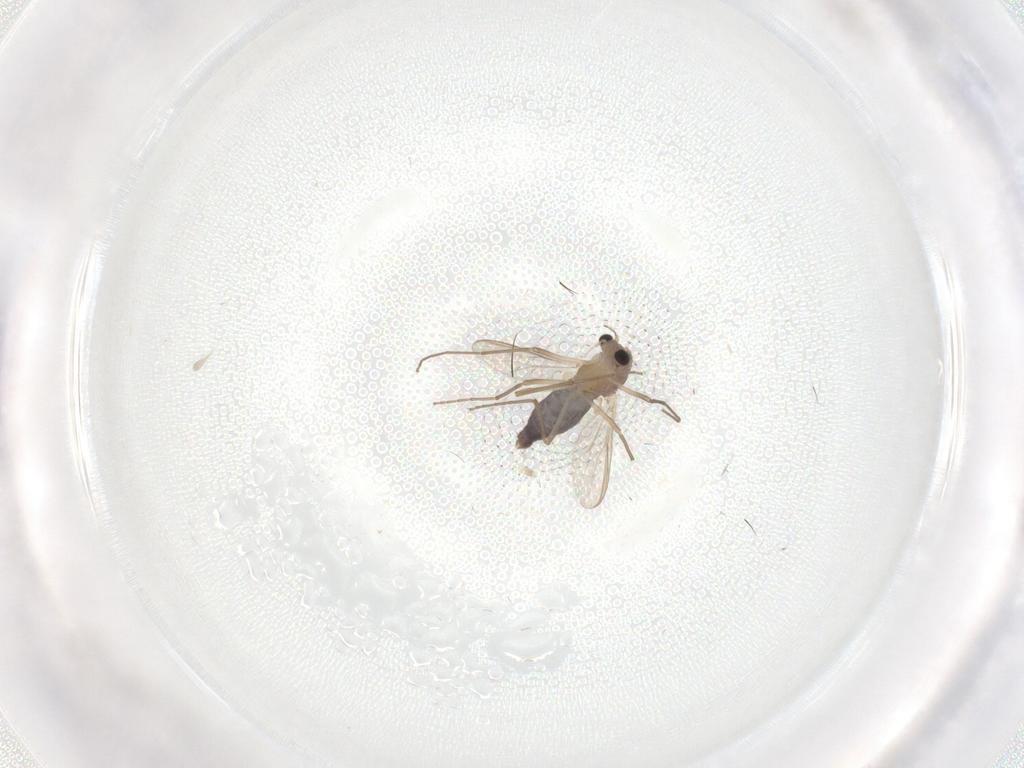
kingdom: Animalia
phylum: Arthropoda
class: Insecta
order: Diptera
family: Chironomidae
